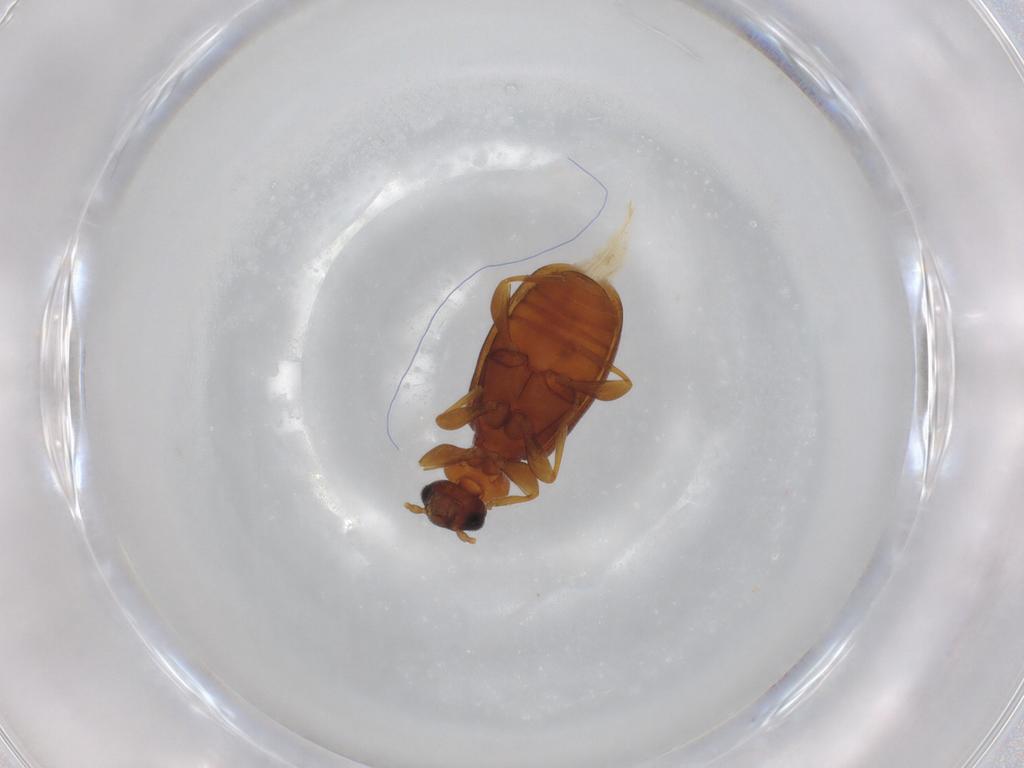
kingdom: Animalia
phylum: Arthropoda
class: Insecta
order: Coleoptera
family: Anthicidae
